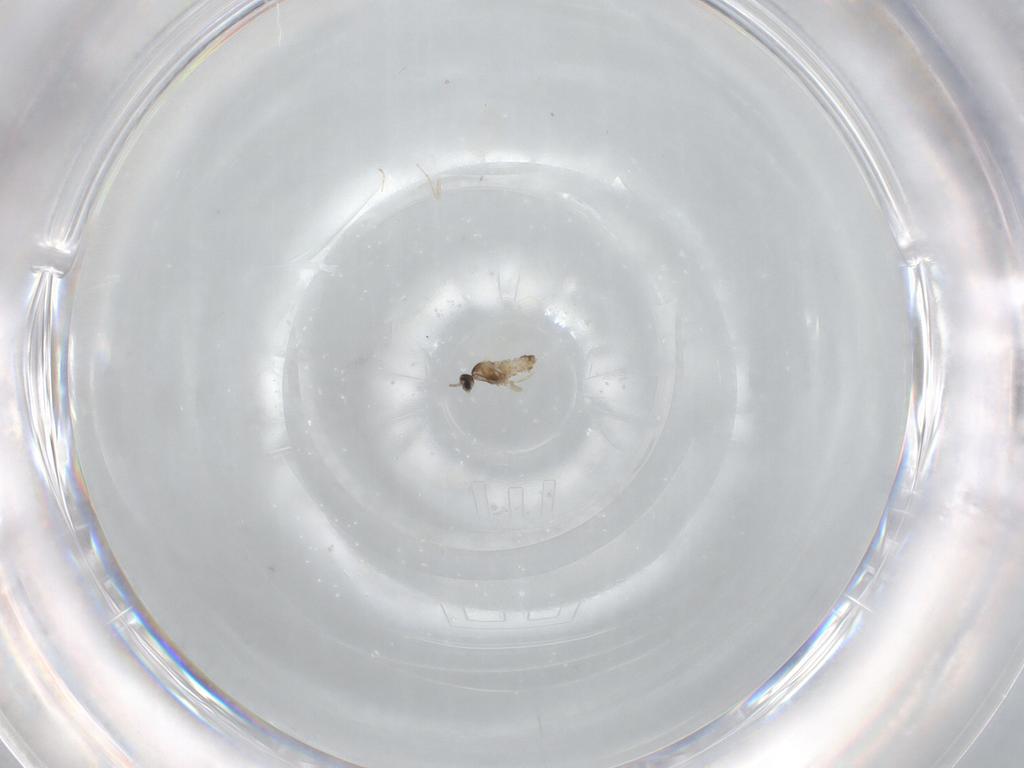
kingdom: Animalia
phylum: Arthropoda
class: Insecta
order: Diptera
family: Cecidomyiidae
